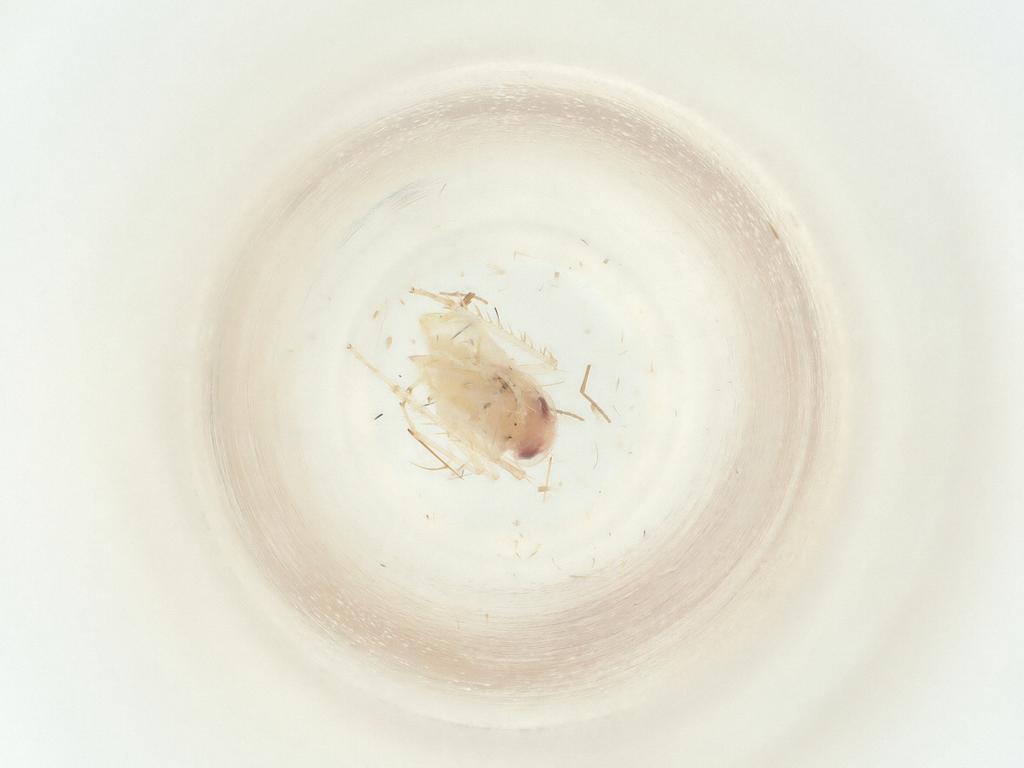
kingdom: Animalia
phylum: Arthropoda
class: Insecta
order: Hemiptera
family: Cicadellidae
